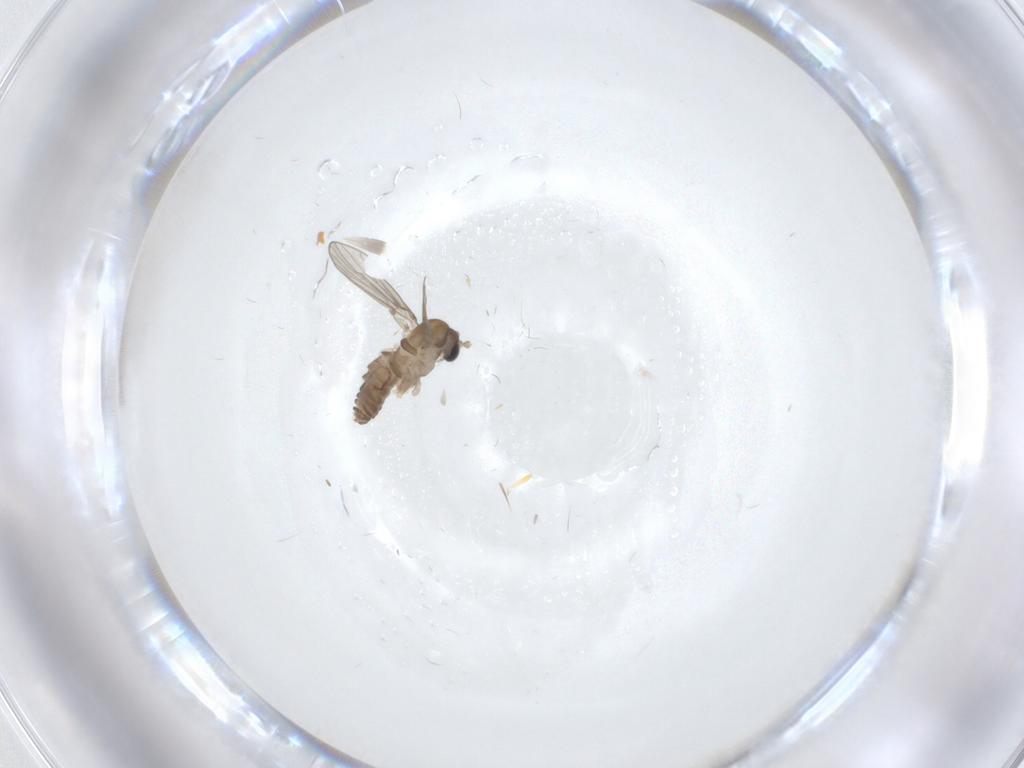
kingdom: Animalia
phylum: Arthropoda
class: Insecta
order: Diptera
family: Psychodidae
